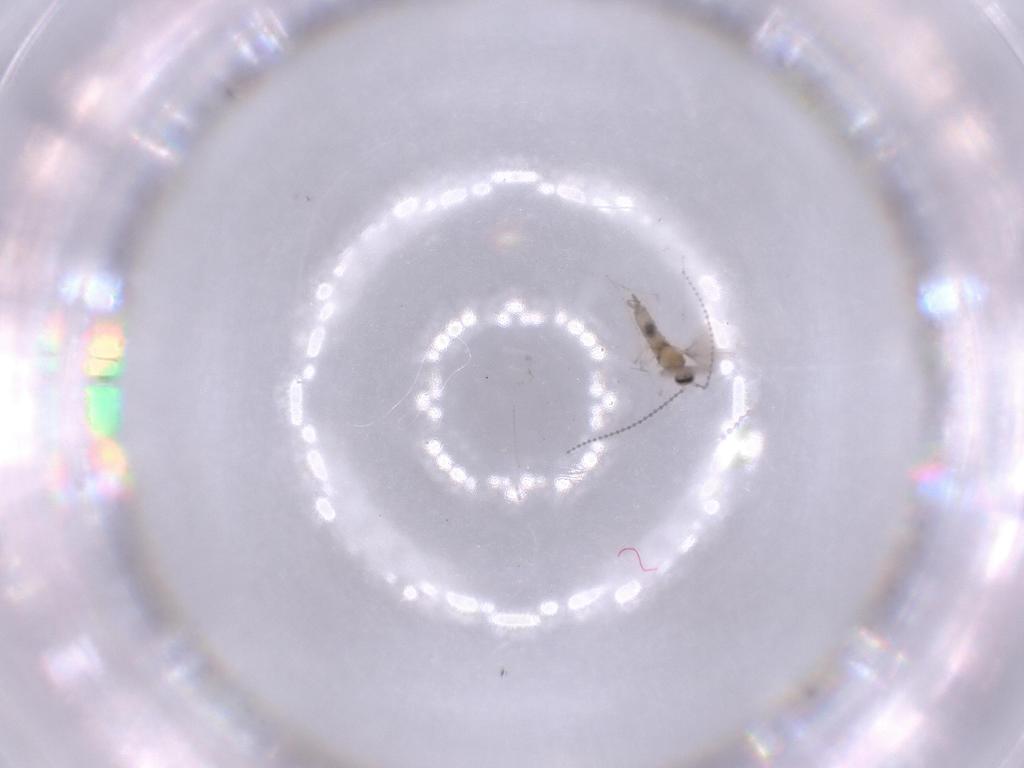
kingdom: Animalia
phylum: Arthropoda
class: Insecta
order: Diptera
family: Cecidomyiidae
